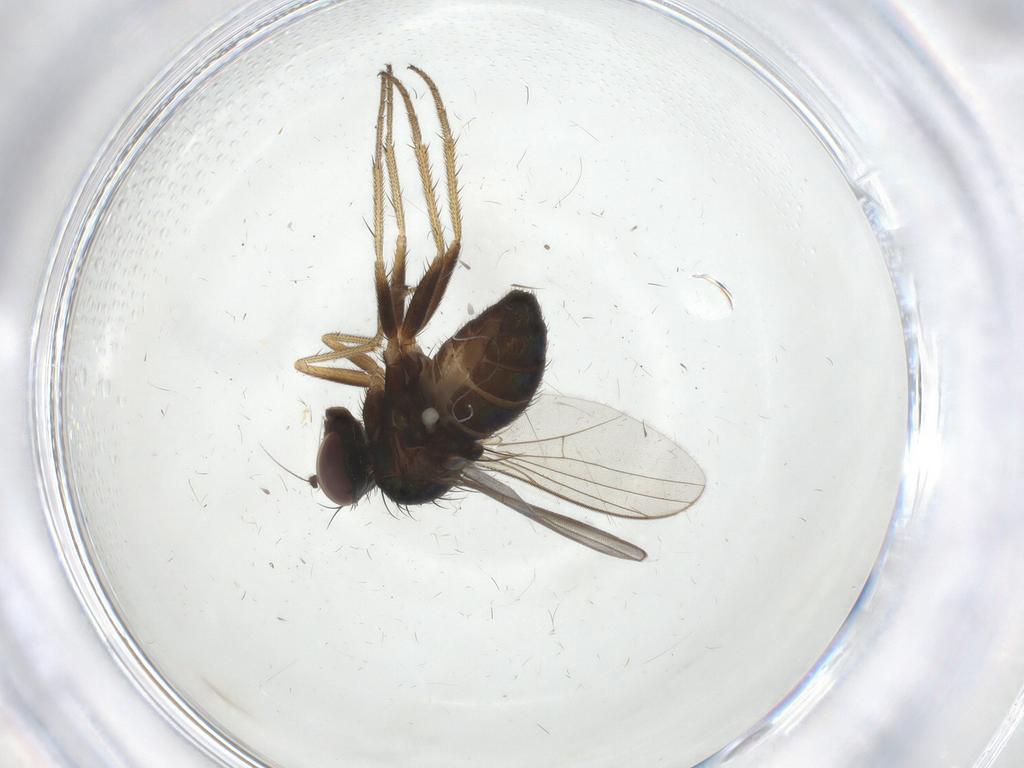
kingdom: Animalia
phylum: Arthropoda
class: Insecta
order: Diptera
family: Dolichopodidae
